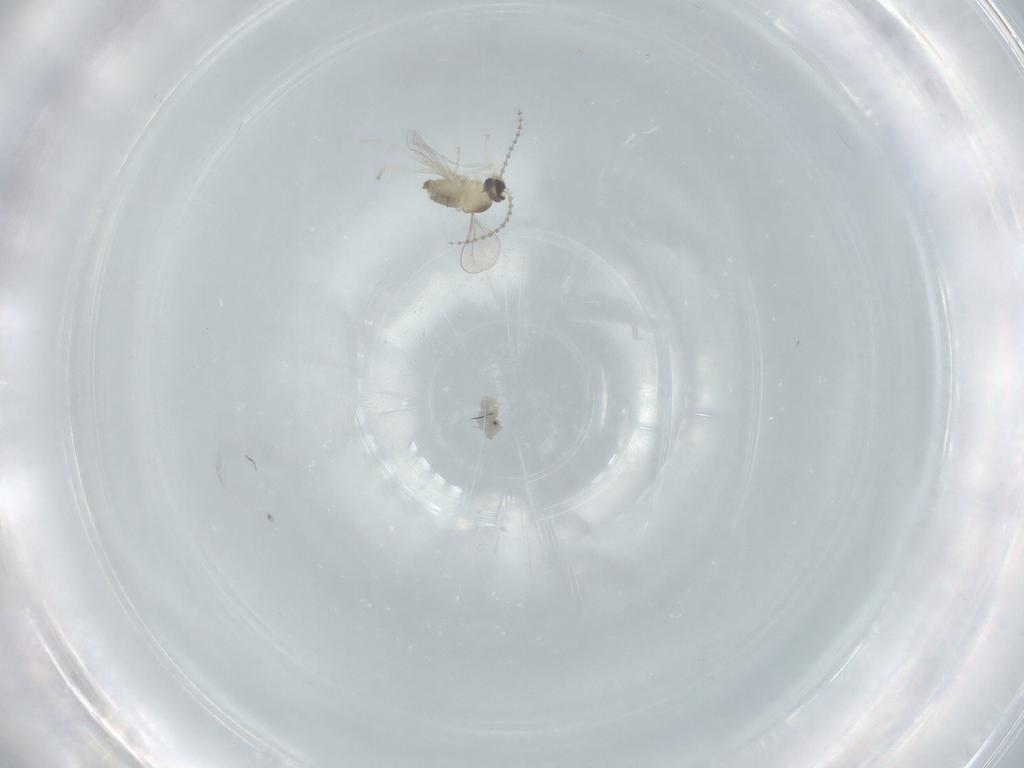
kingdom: Animalia
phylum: Arthropoda
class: Insecta
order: Diptera
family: Cecidomyiidae
